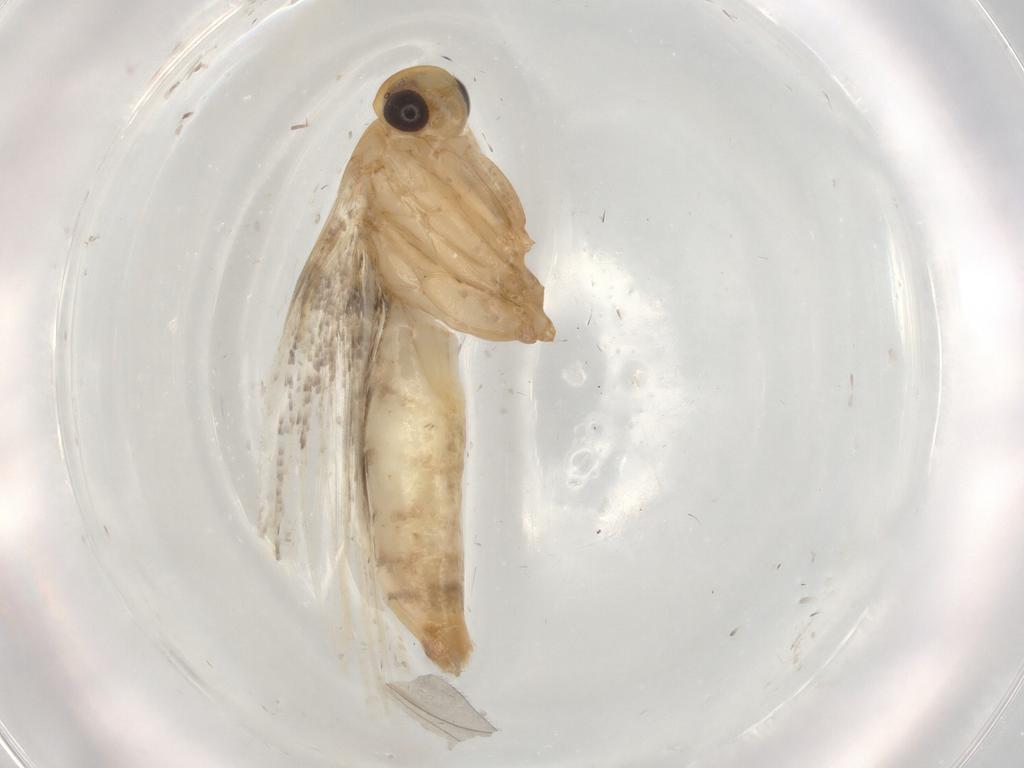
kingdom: Animalia
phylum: Arthropoda
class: Insecta
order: Lepidoptera
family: Alucitidae
